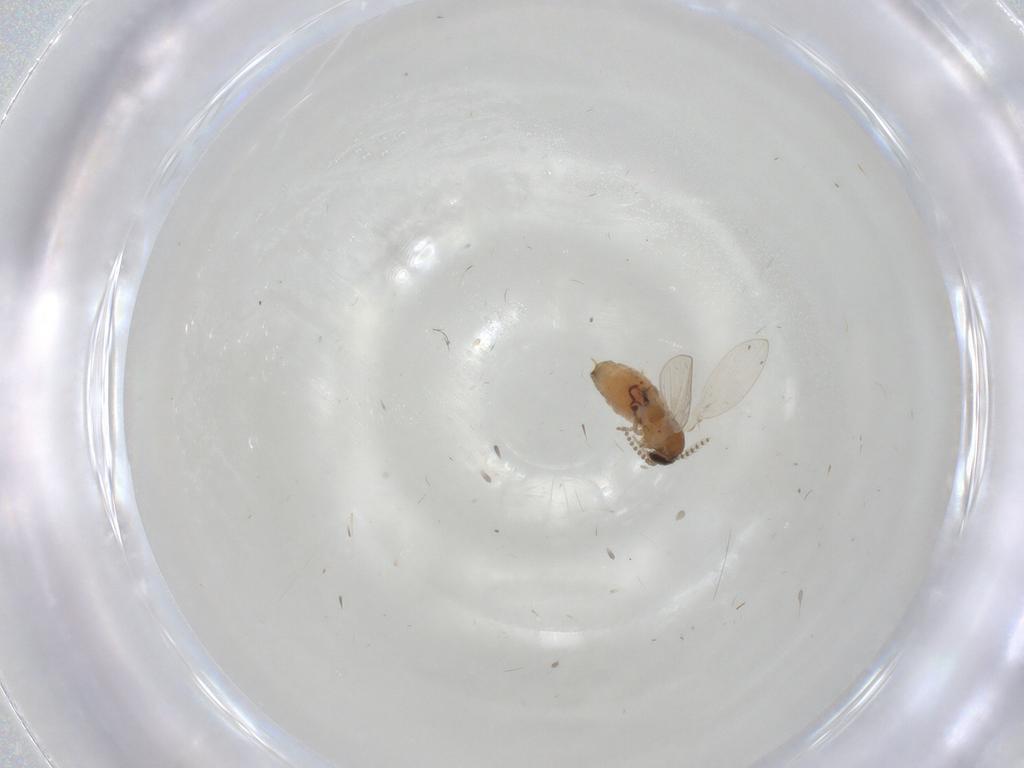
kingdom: Animalia
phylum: Arthropoda
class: Insecta
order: Diptera
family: Psychodidae
